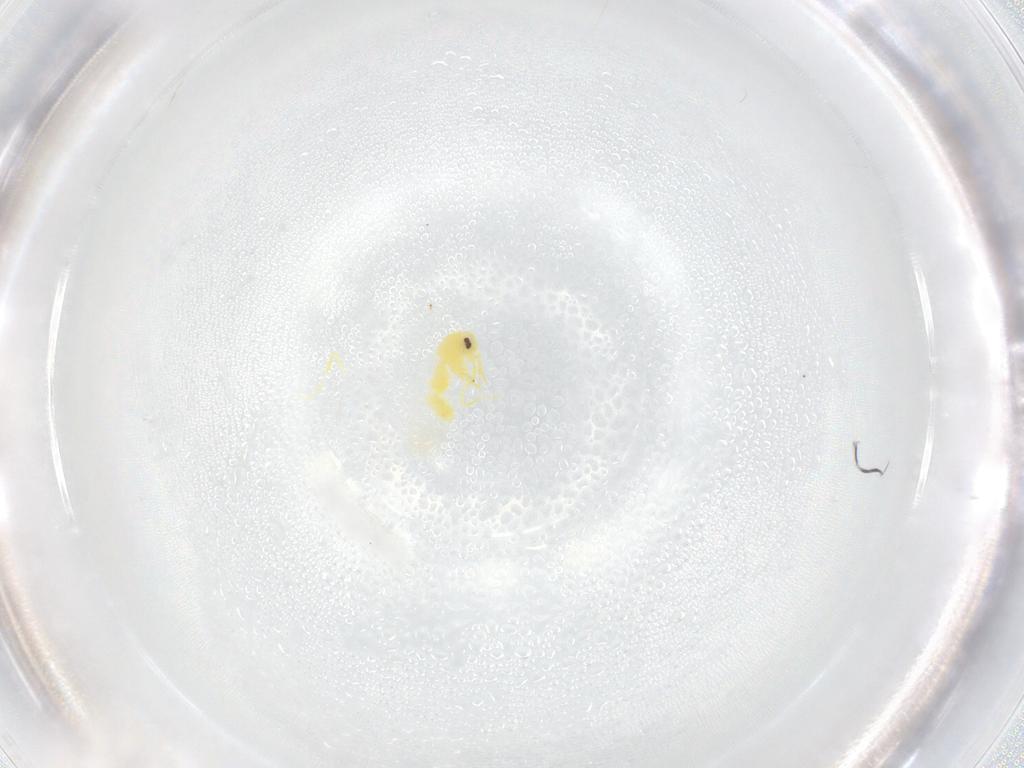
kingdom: Animalia
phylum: Arthropoda
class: Insecta
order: Hemiptera
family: Aleyrodidae
